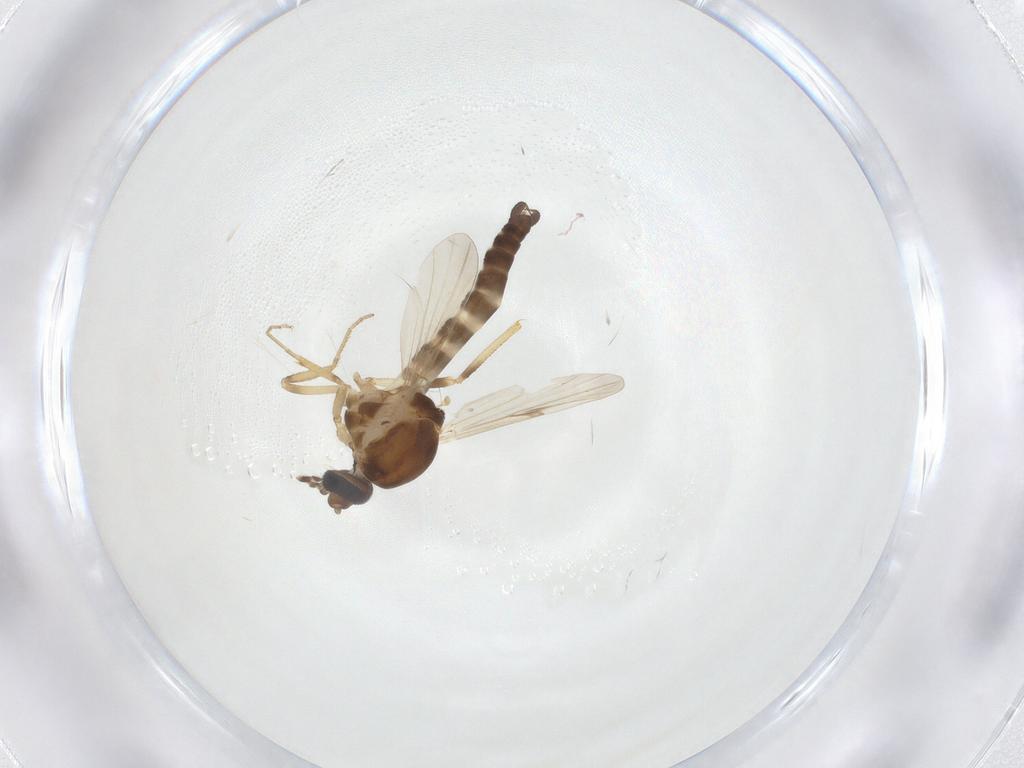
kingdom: Animalia
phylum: Arthropoda
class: Insecta
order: Diptera
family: Ceratopogonidae
